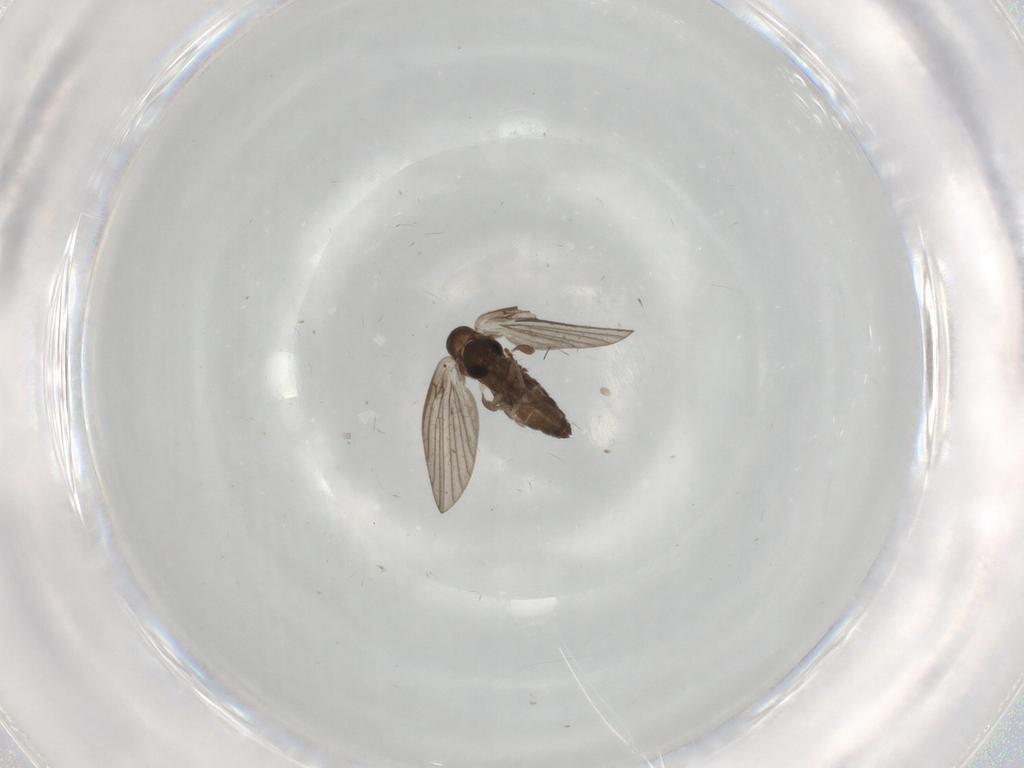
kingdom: Animalia
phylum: Arthropoda
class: Insecta
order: Diptera
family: Chironomidae
